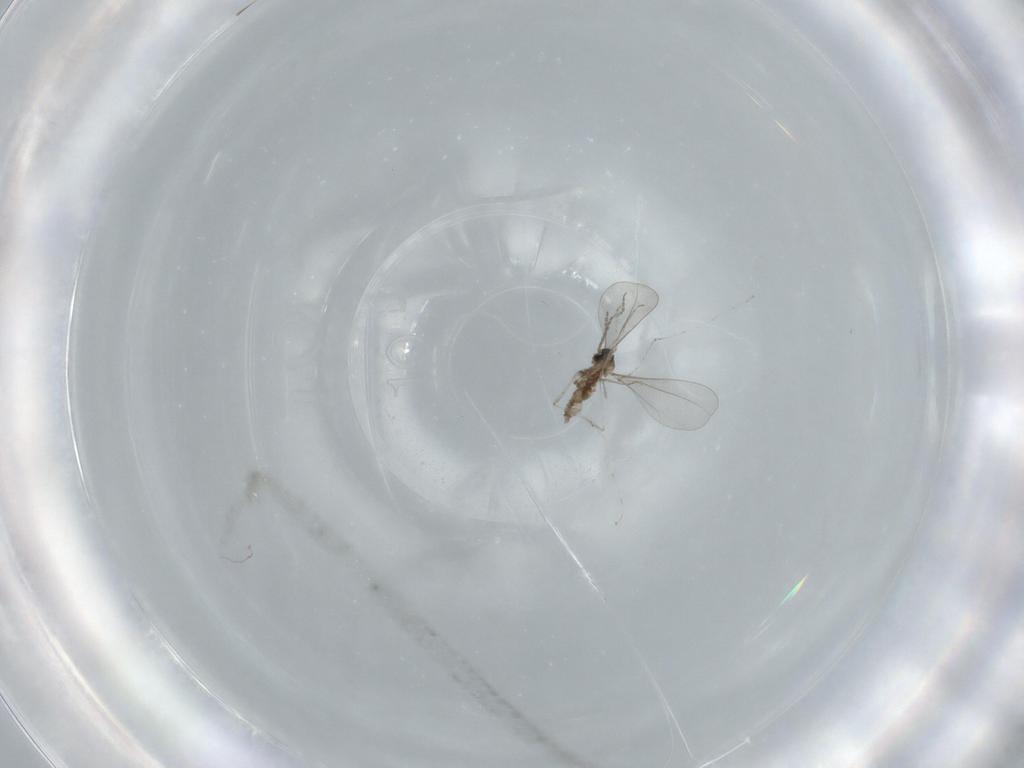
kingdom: Animalia
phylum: Arthropoda
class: Insecta
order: Diptera
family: Cecidomyiidae
